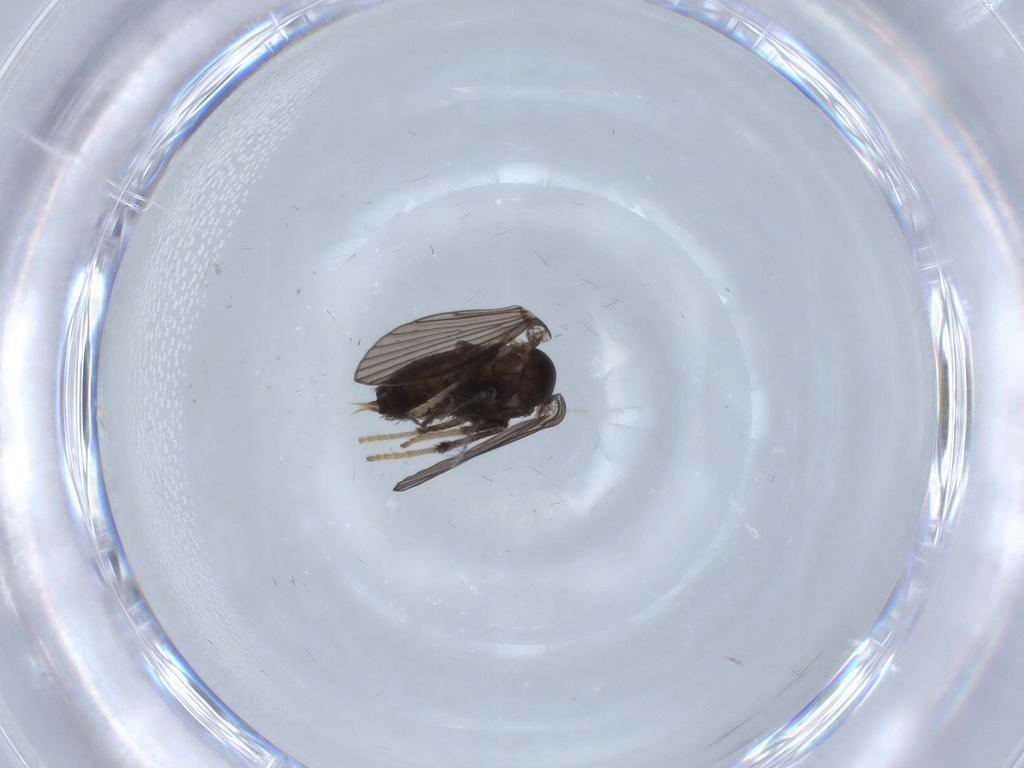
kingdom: Animalia
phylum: Arthropoda
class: Insecta
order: Diptera
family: Psychodidae
